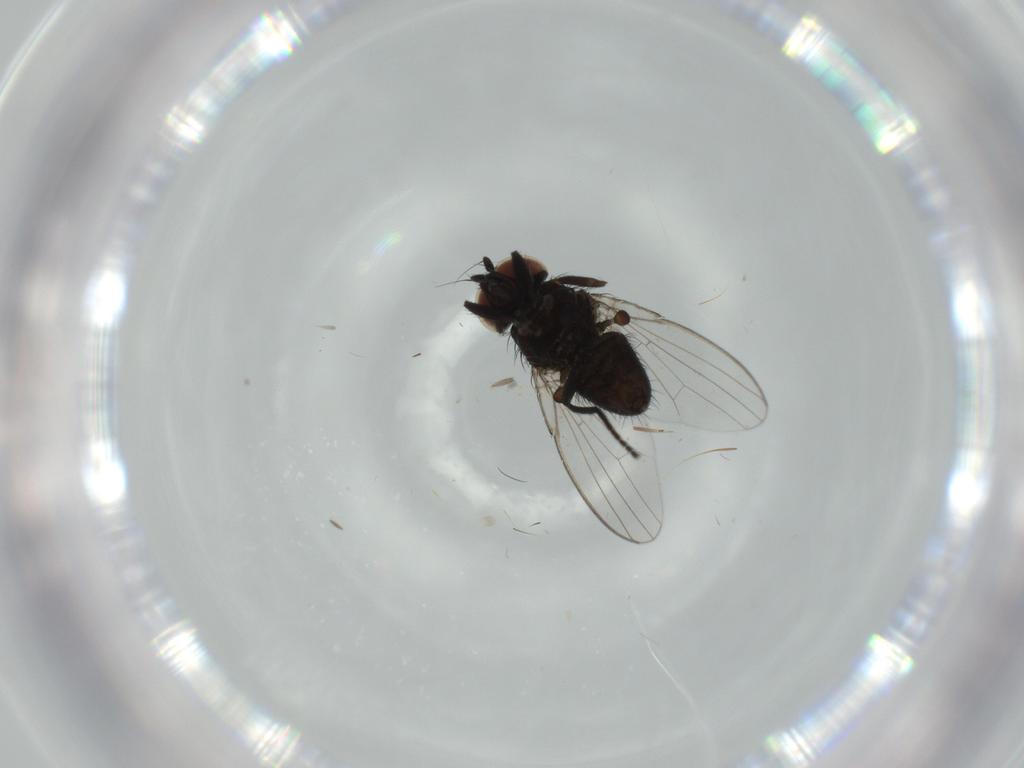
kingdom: Animalia
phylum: Arthropoda
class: Insecta
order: Diptera
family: Milichiidae
